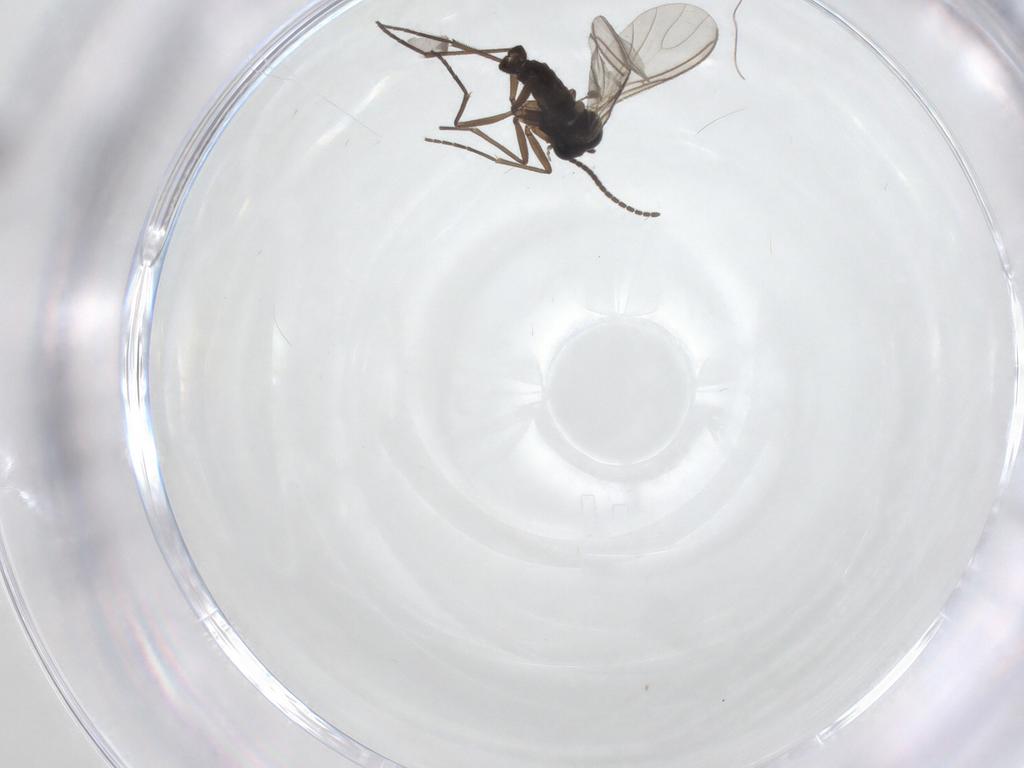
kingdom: Animalia
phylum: Arthropoda
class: Insecta
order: Diptera
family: Sciaridae
